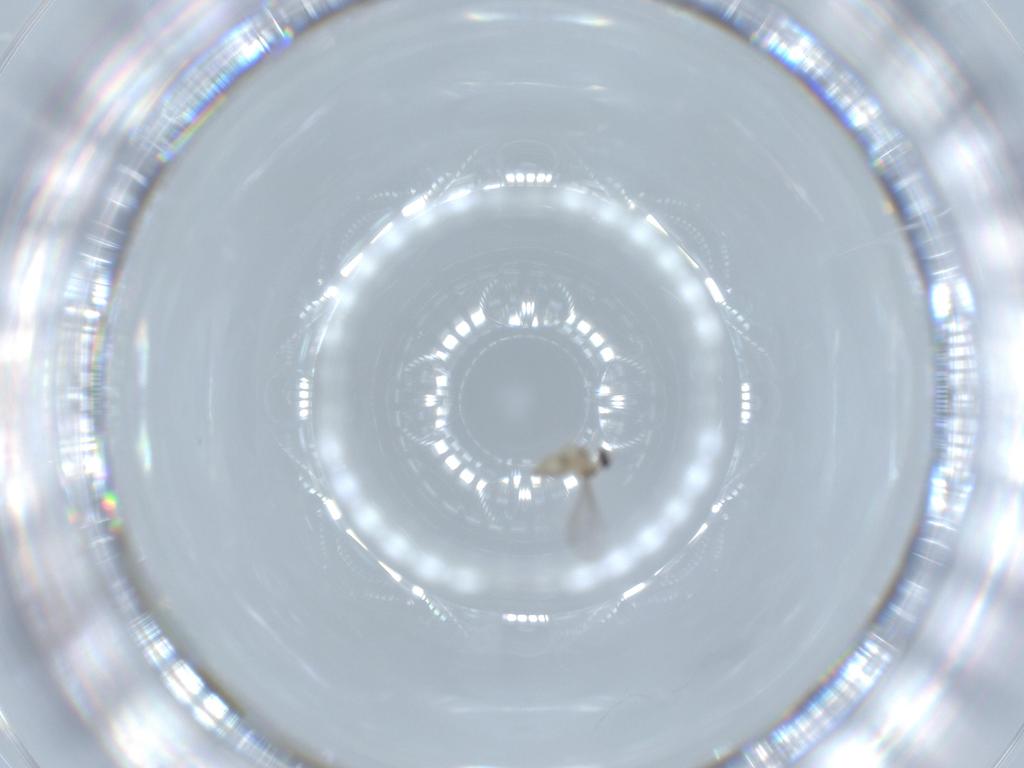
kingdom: Animalia
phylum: Arthropoda
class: Insecta
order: Diptera
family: Cecidomyiidae
